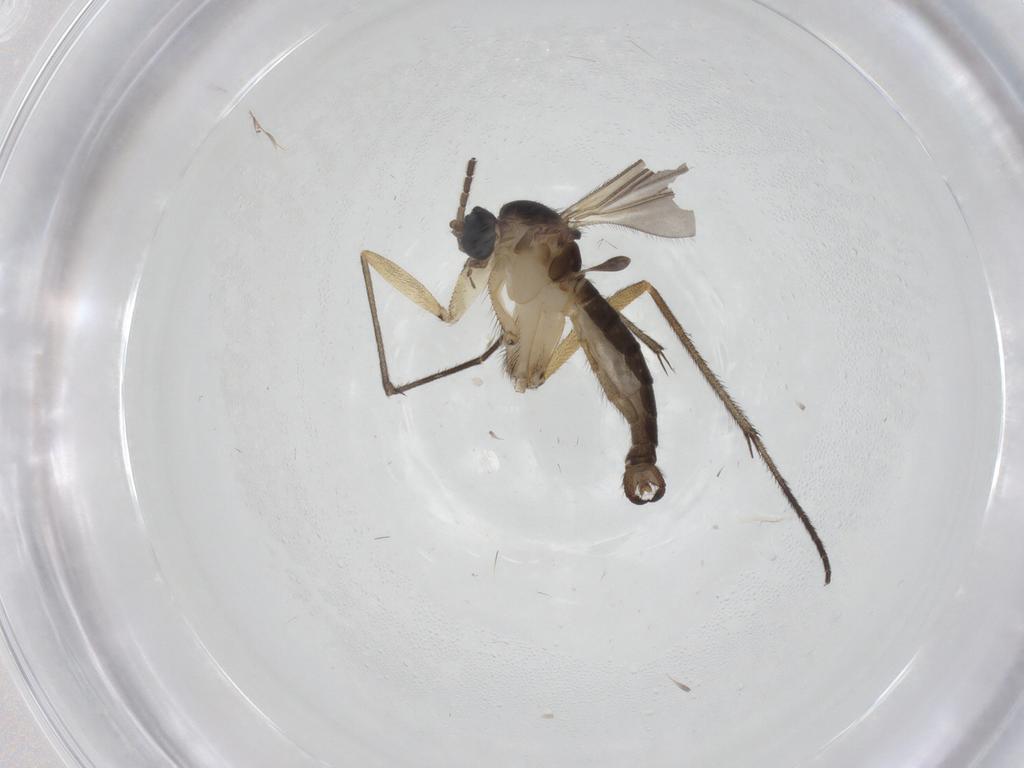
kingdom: Animalia
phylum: Arthropoda
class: Insecta
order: Diptera
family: Sciaridae
